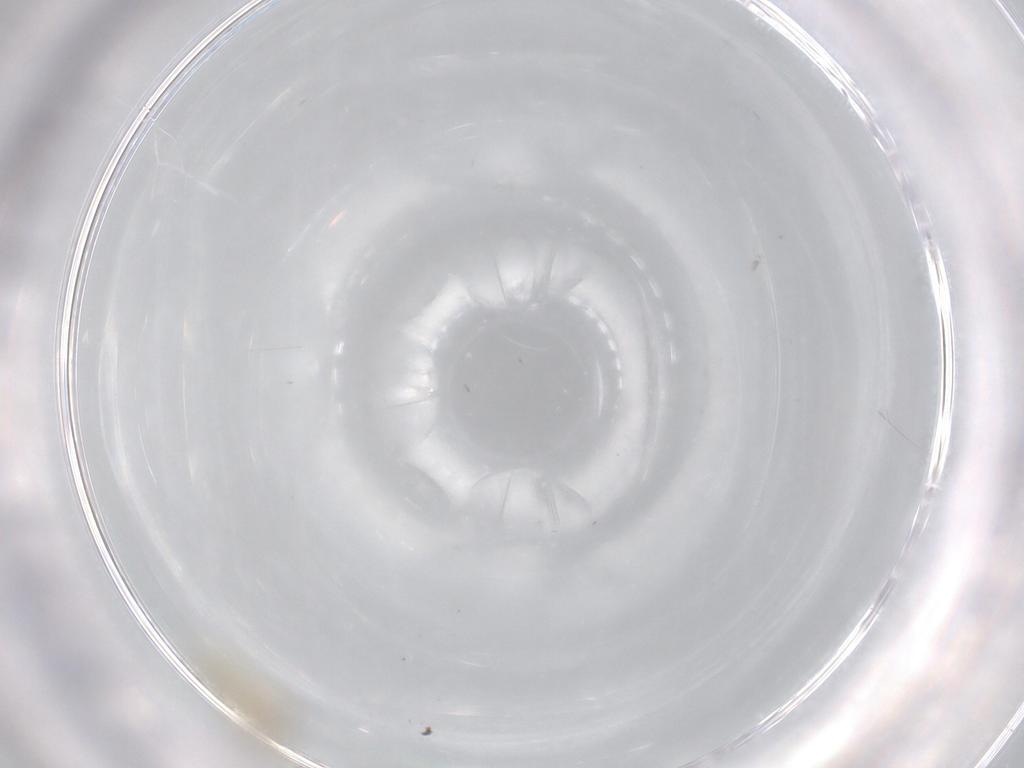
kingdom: Animalia
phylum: Arthropoda
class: Insecta
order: Diptera
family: Cecidomyiidae
